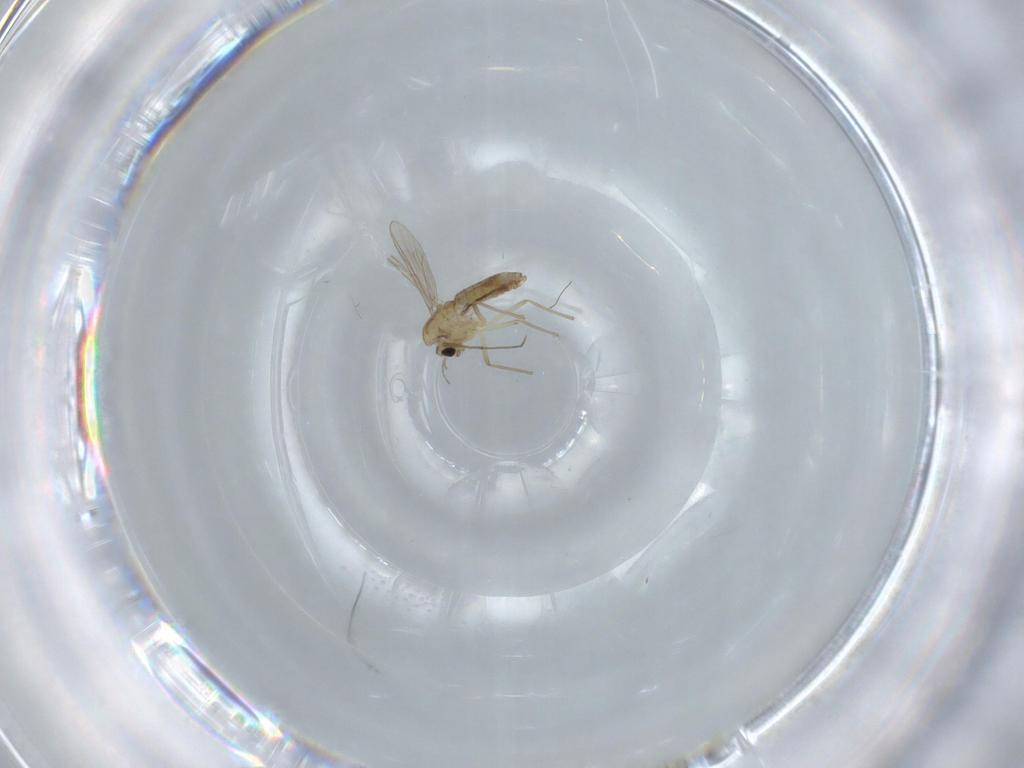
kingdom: Animalia
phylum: Arthropoda
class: Insecta
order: Diptera
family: Chironomidae
